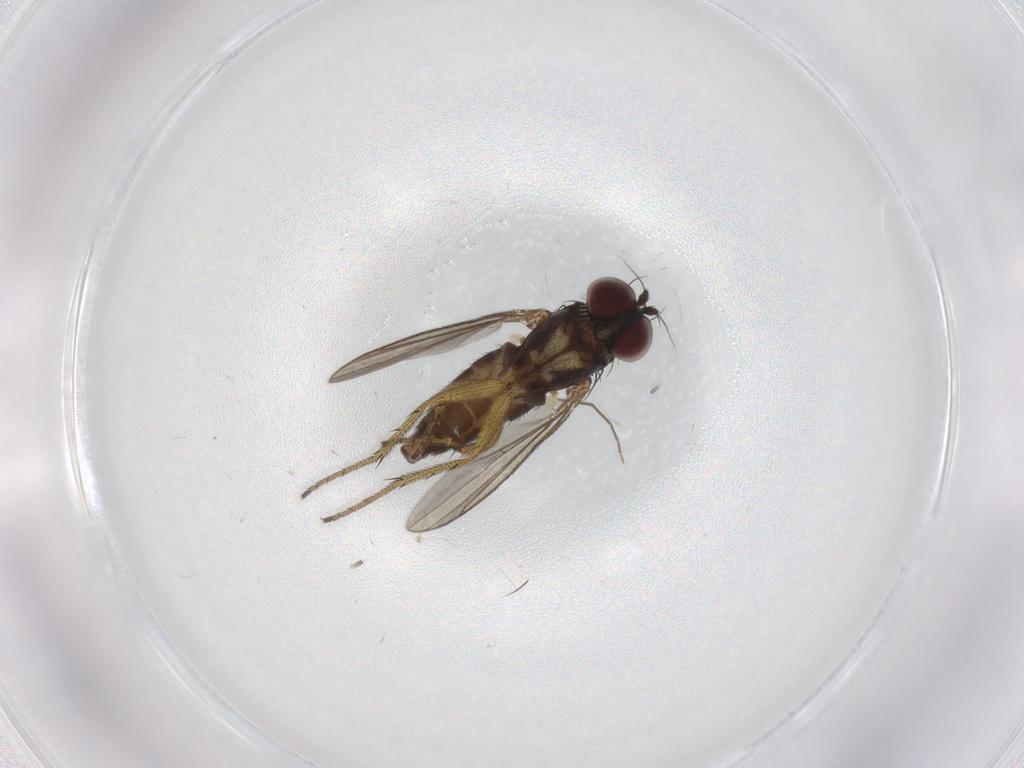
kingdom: Animalia
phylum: Arthropoda
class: Insecta
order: Diptera
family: Dolichopodidae
